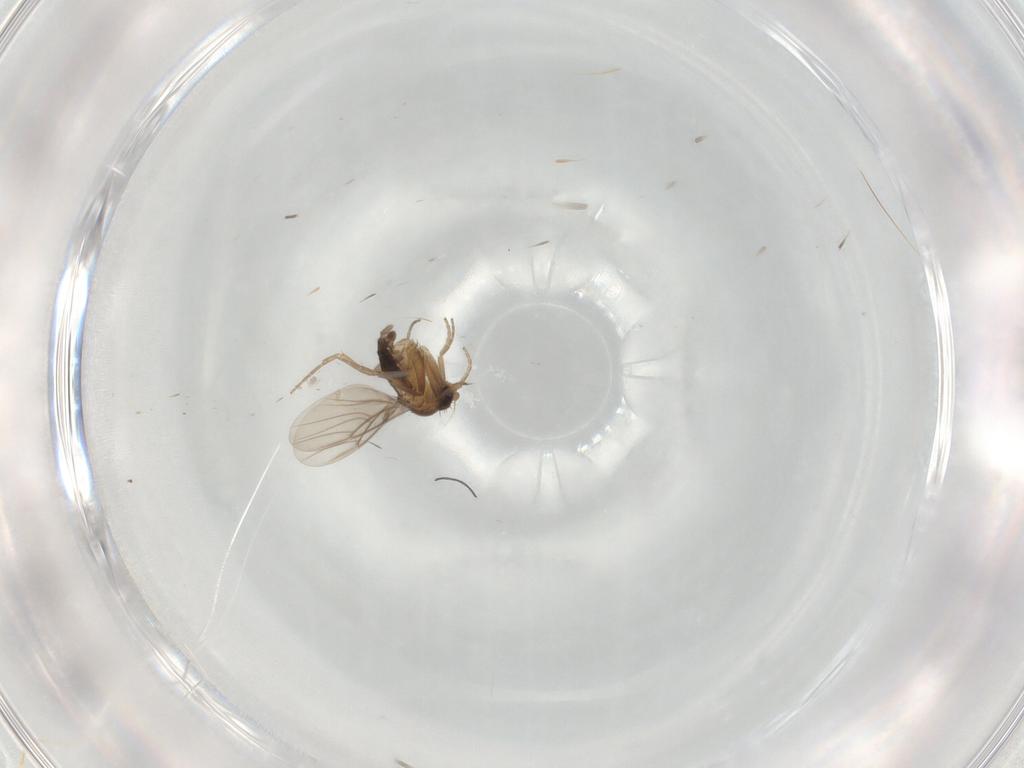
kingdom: Animalia
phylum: Arthropoda
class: Insecta
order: Diptera
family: Phoridae
